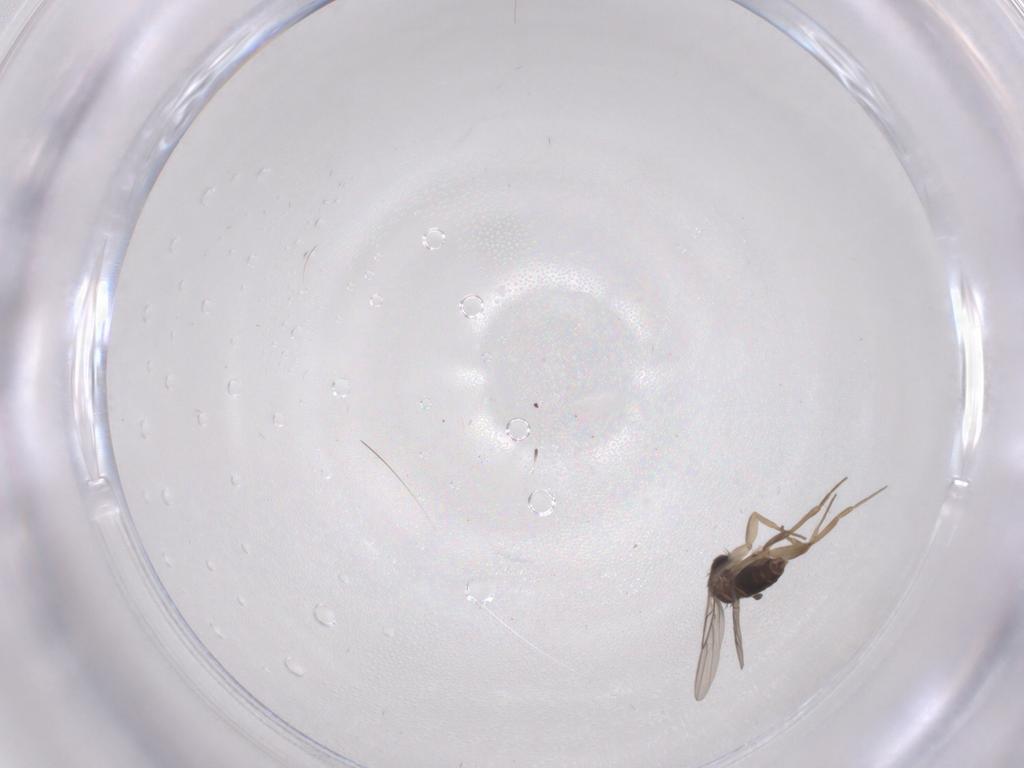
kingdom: Animalia
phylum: Arthropoda
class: Insecta
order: Diptera
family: Phoridae
